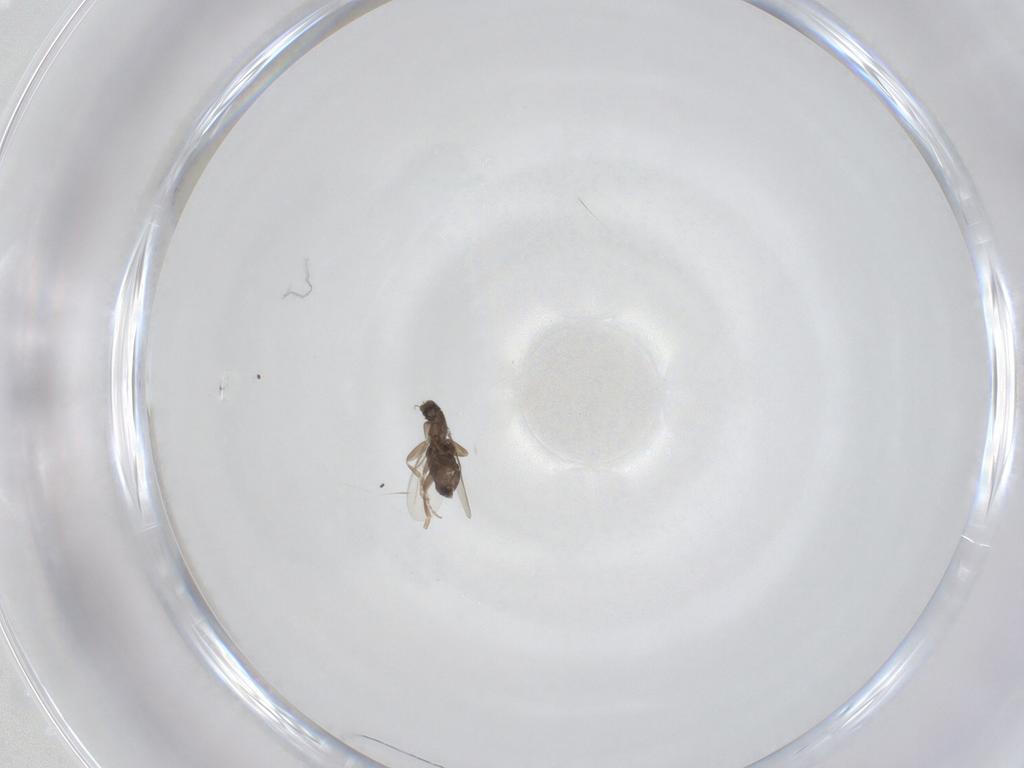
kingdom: Animalia
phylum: Arthropoda
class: Insecta
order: Diptera
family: Phoridae
